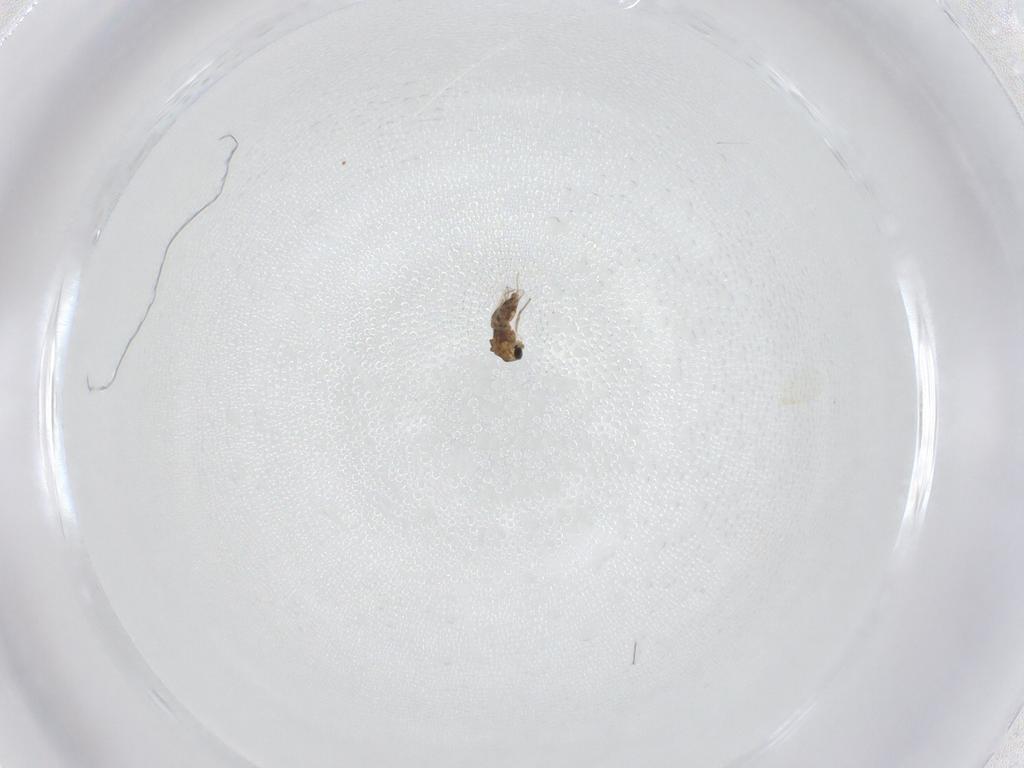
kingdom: Animalia
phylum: Arthropoda
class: Insecta
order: Diptera
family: Chironomidae
